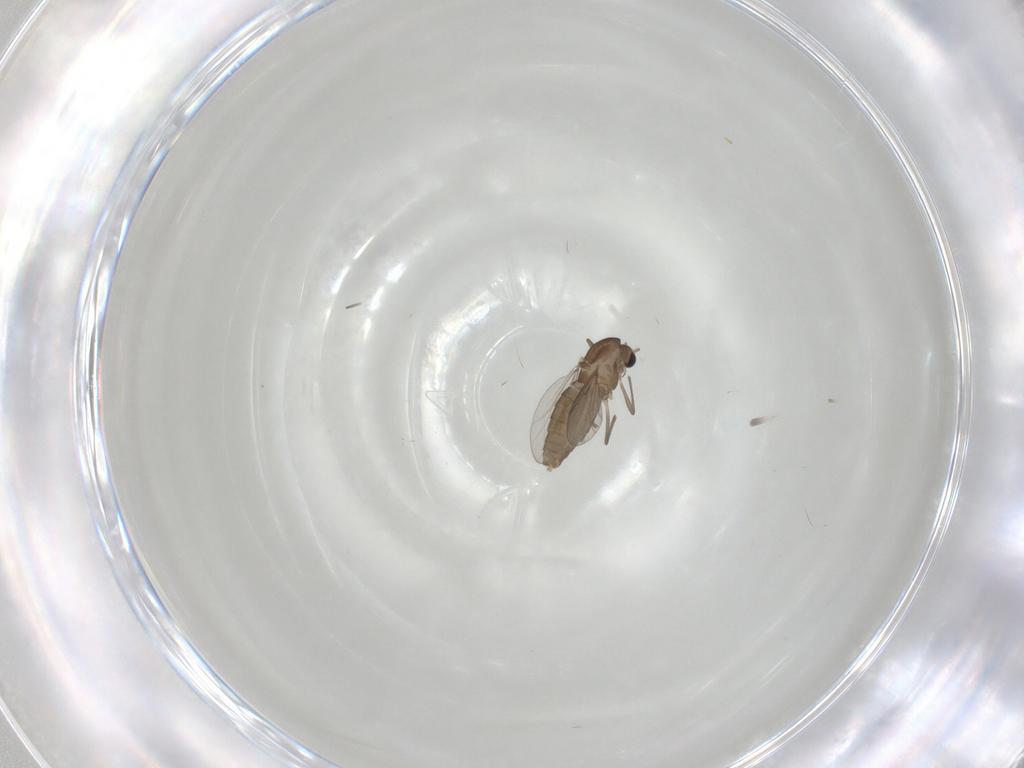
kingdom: Animalia
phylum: Arthropoda
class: Insecta
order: Diptera
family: Chironomidae
